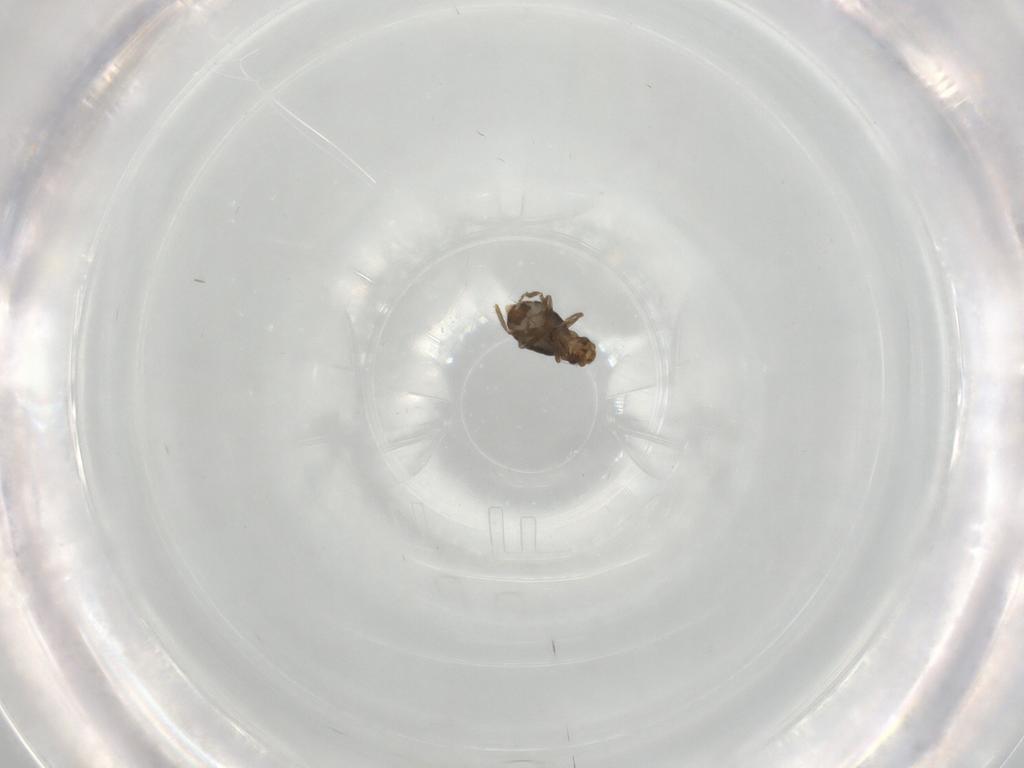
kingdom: Animalia
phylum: Arthropoda
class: Insecta
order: Diptera
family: Phoridae
